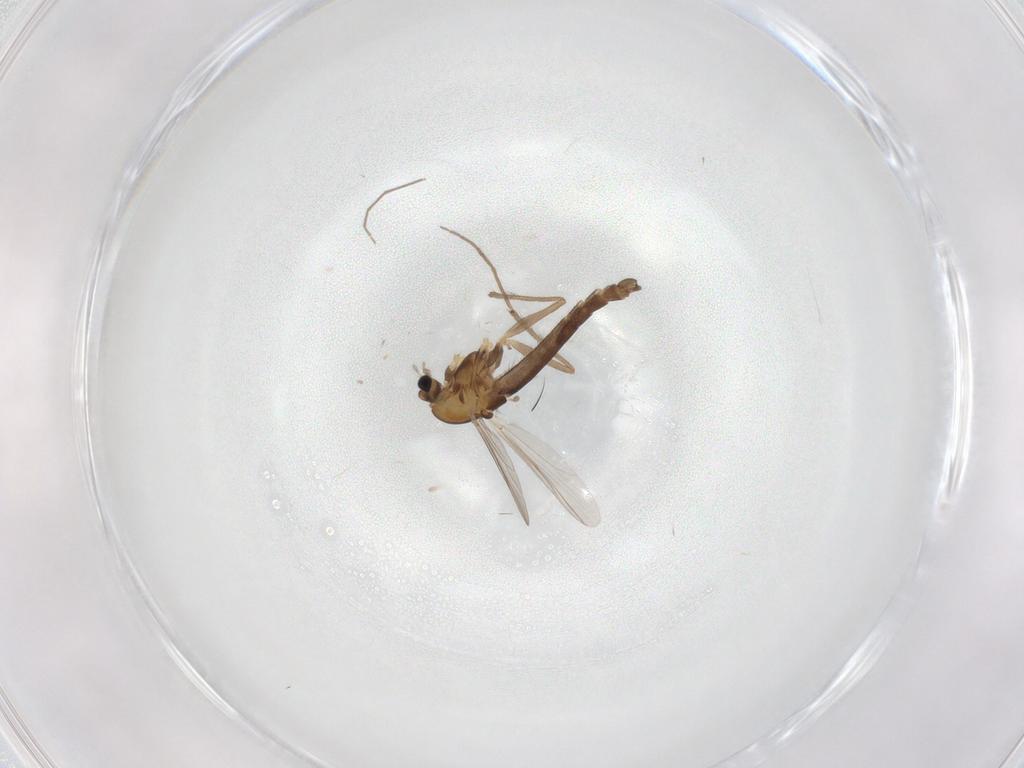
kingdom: Animalia
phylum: Arthropoda
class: Insecta
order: Diptera
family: Chironomidae
